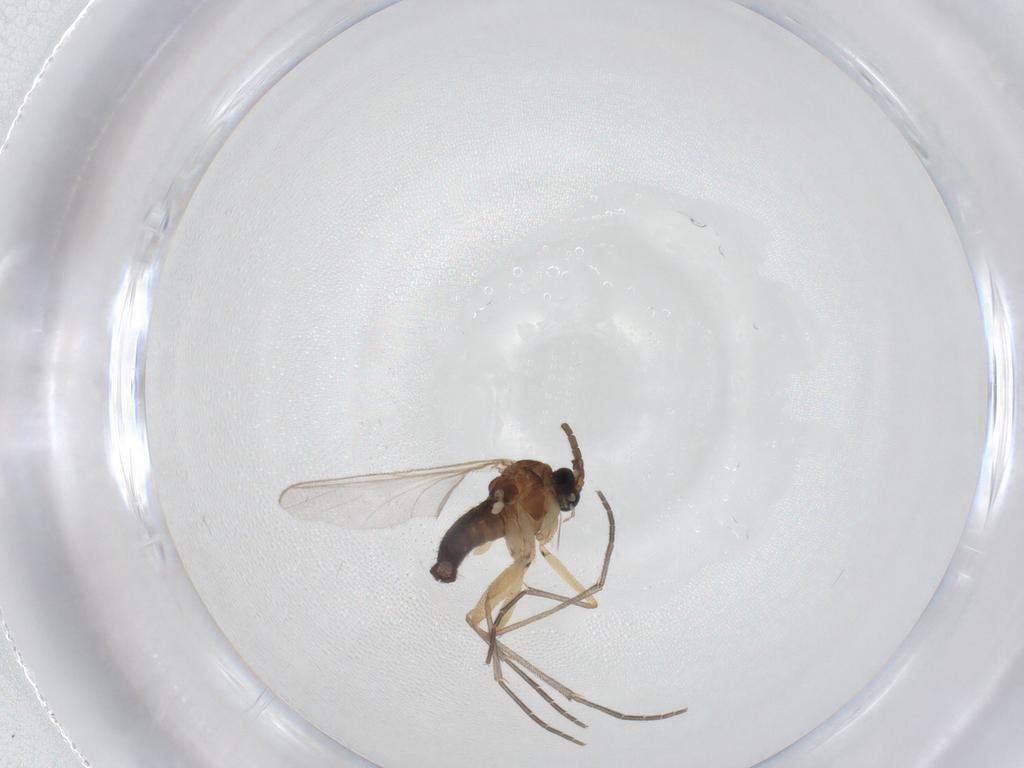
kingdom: Animalia
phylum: Arthropoda
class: Insecta
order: Diptera
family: Sciaridae
